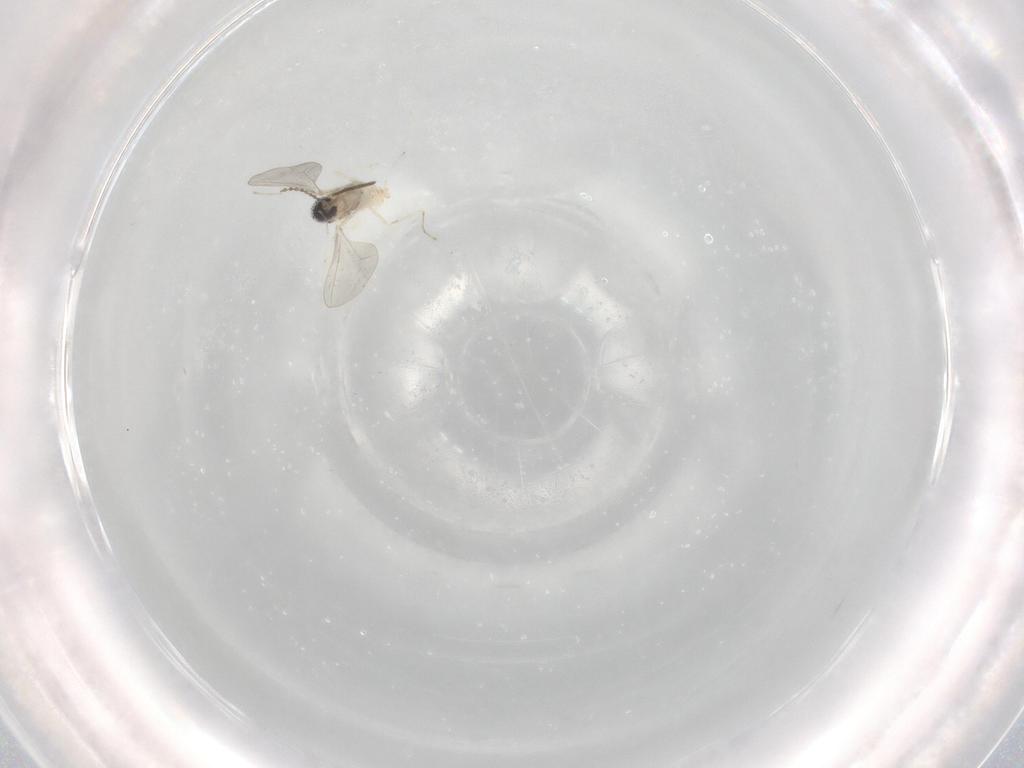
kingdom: Animalia
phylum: Arthropoda
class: Insecta
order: Diptera
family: Cecidomyiidae
